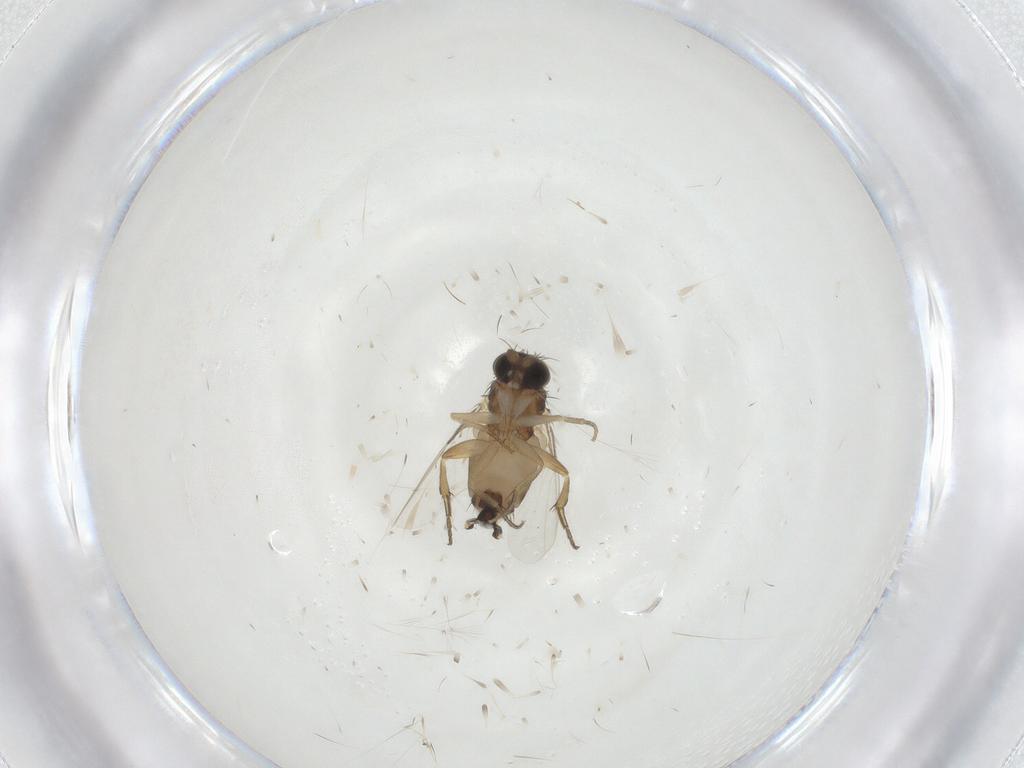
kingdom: Animalia
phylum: Arthropoda
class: Insecta
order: Diptera
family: Phoridae
